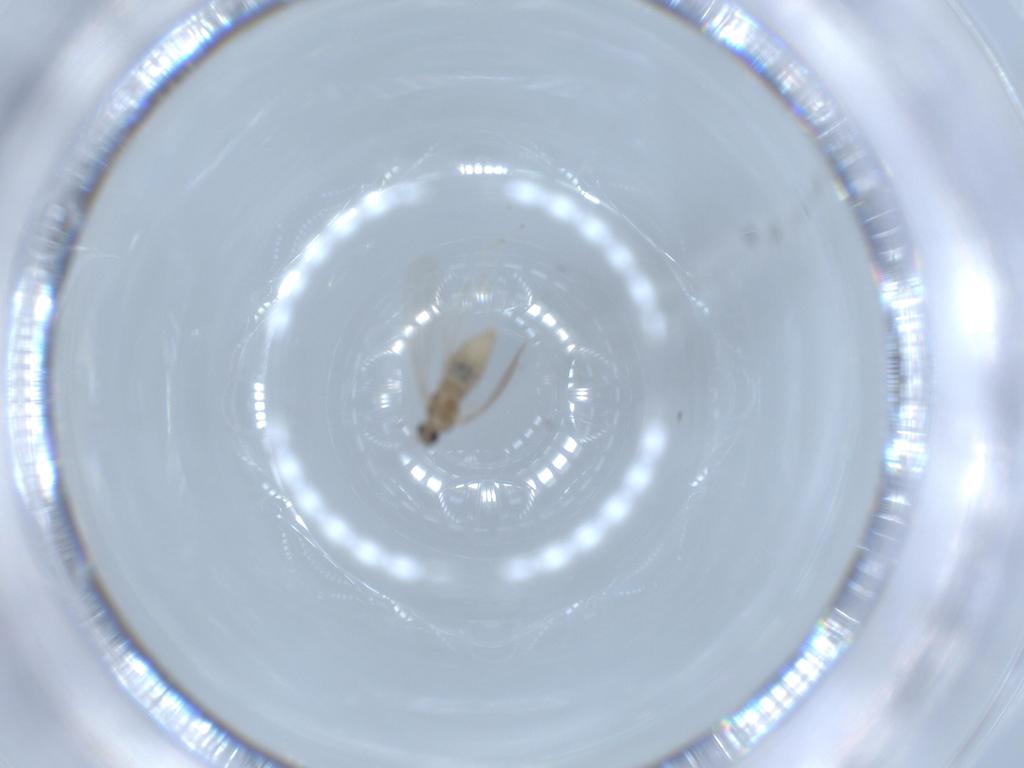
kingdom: Animalia
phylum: Arthropoda
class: Insecta
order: Diptera
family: Cecidomyiidae
